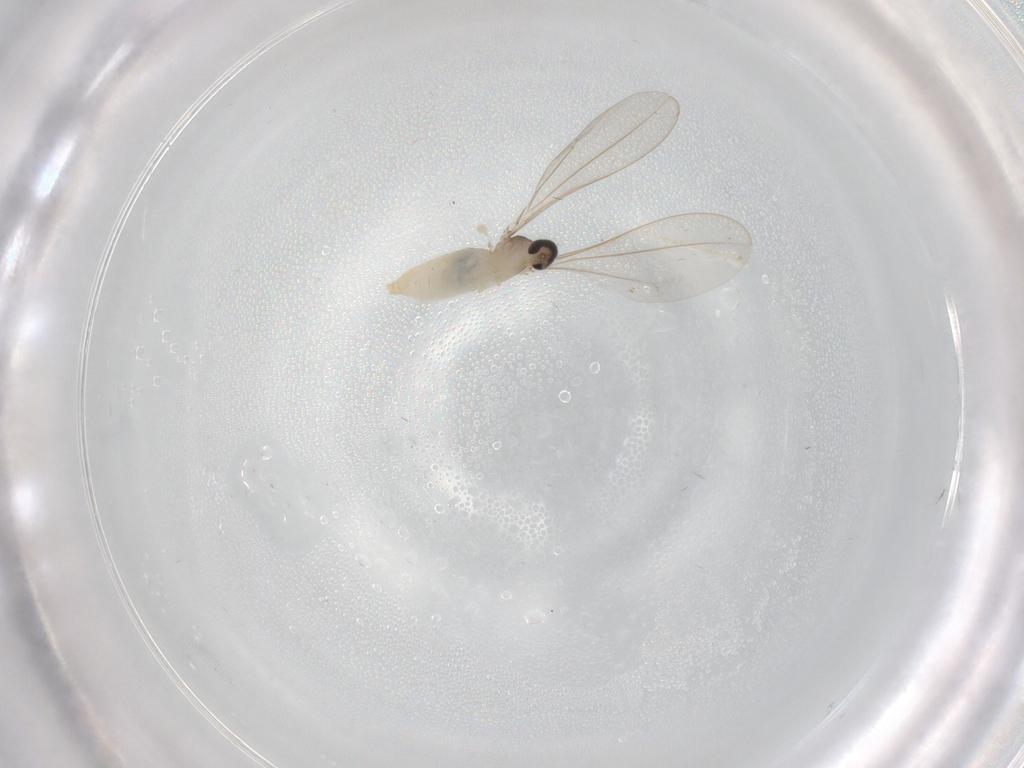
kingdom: Animalia
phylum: Arthropoda
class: Insecta
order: Diptera
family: Cecidomyiidae
